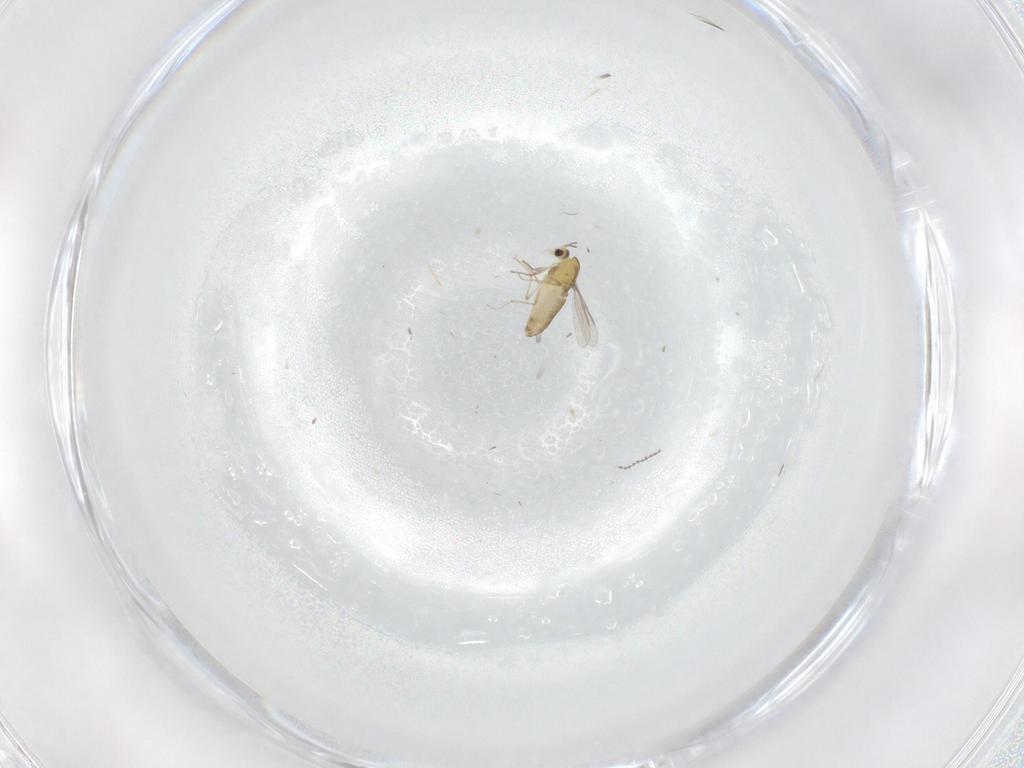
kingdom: Animalia
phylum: Arthropoda
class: Insecta
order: Diptera
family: Chironomidae
